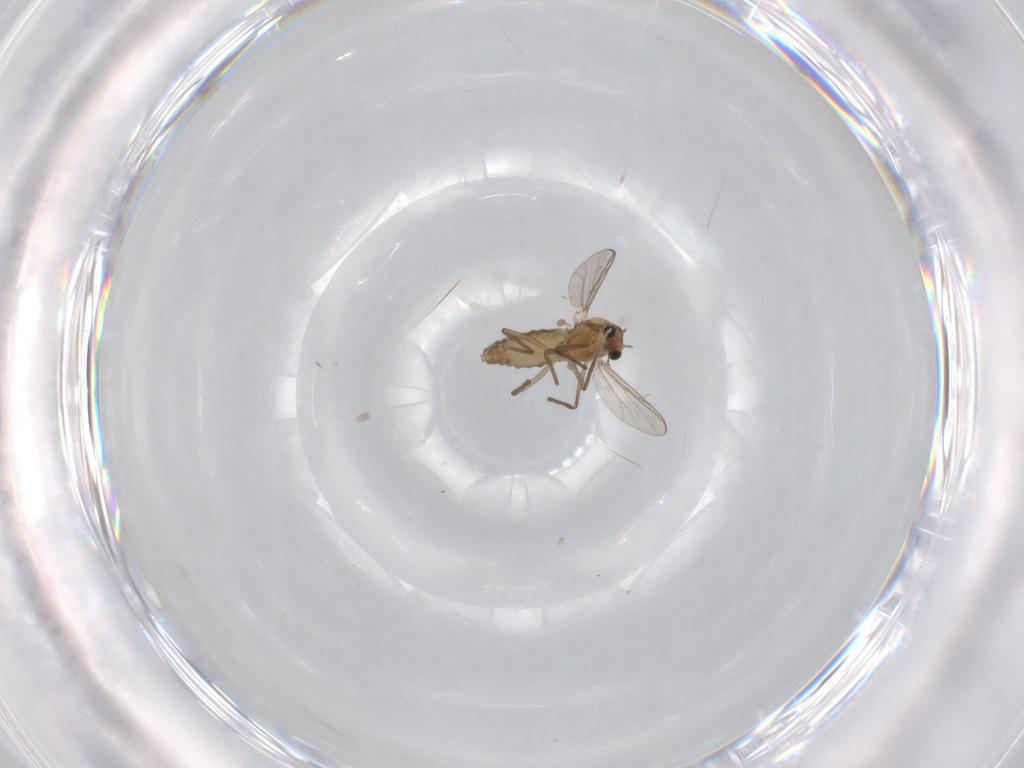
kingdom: Animalia
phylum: Arthropoda
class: Insecta
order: Diptera
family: Chironomidae
